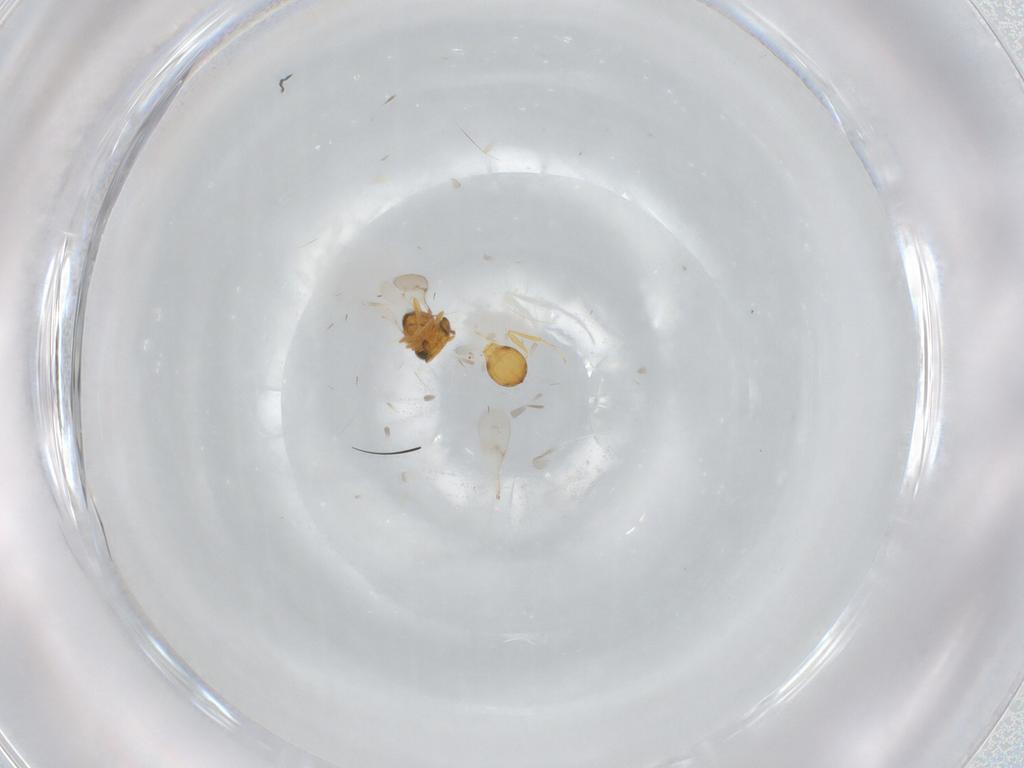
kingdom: Animalia
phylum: Arthropoda
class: Insecta
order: Hymenoptera
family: Scelionidae
